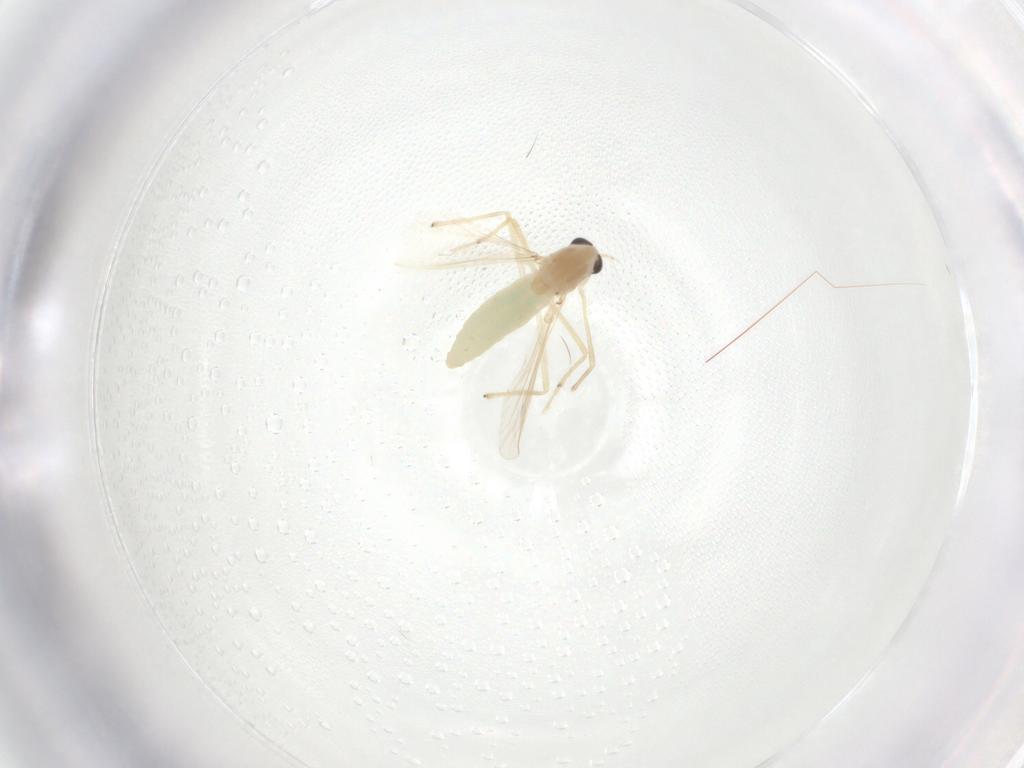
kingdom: Animalia
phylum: Arthropoda
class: Insecta
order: Diptera
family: Chironomidae
